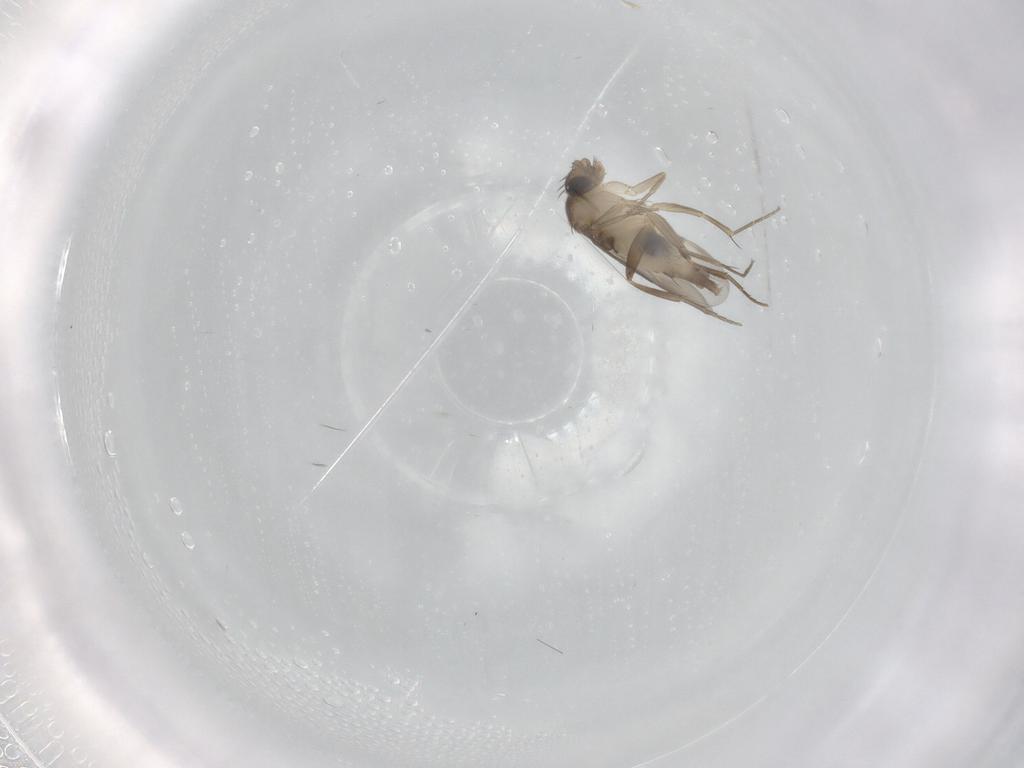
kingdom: Animalia
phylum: Arthropoda
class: Insecta
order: Diptera
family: Phoridae
